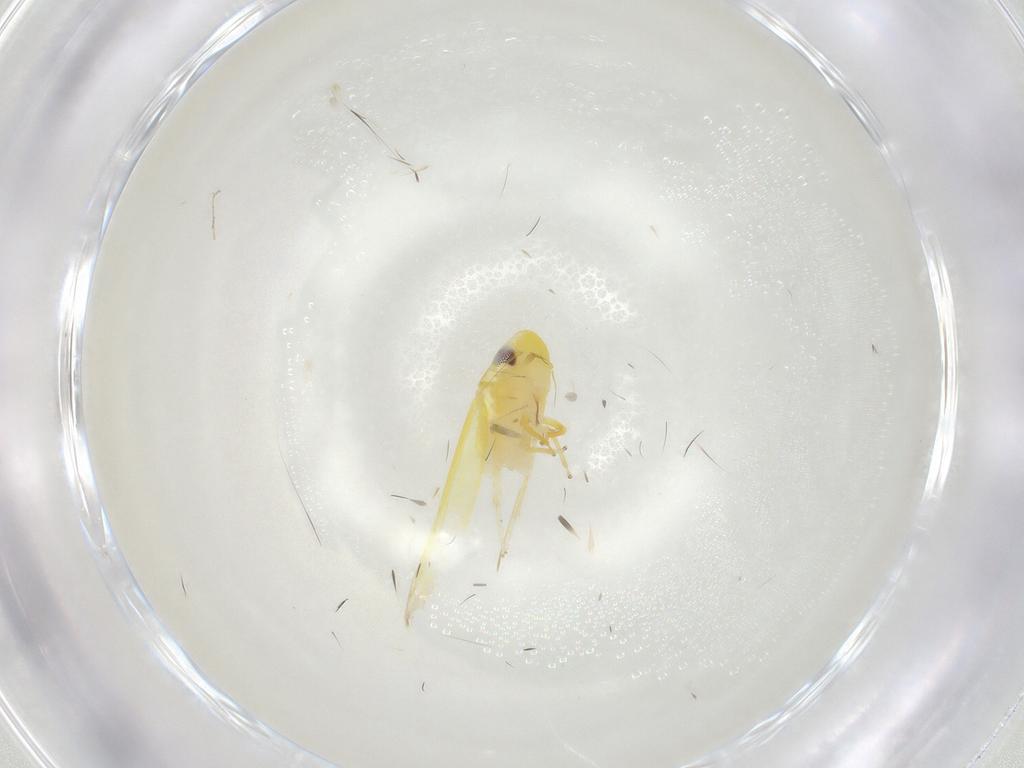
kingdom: Animalia
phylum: Arthropoda
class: Insecta
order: Hemiptera
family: Cicadellidae
